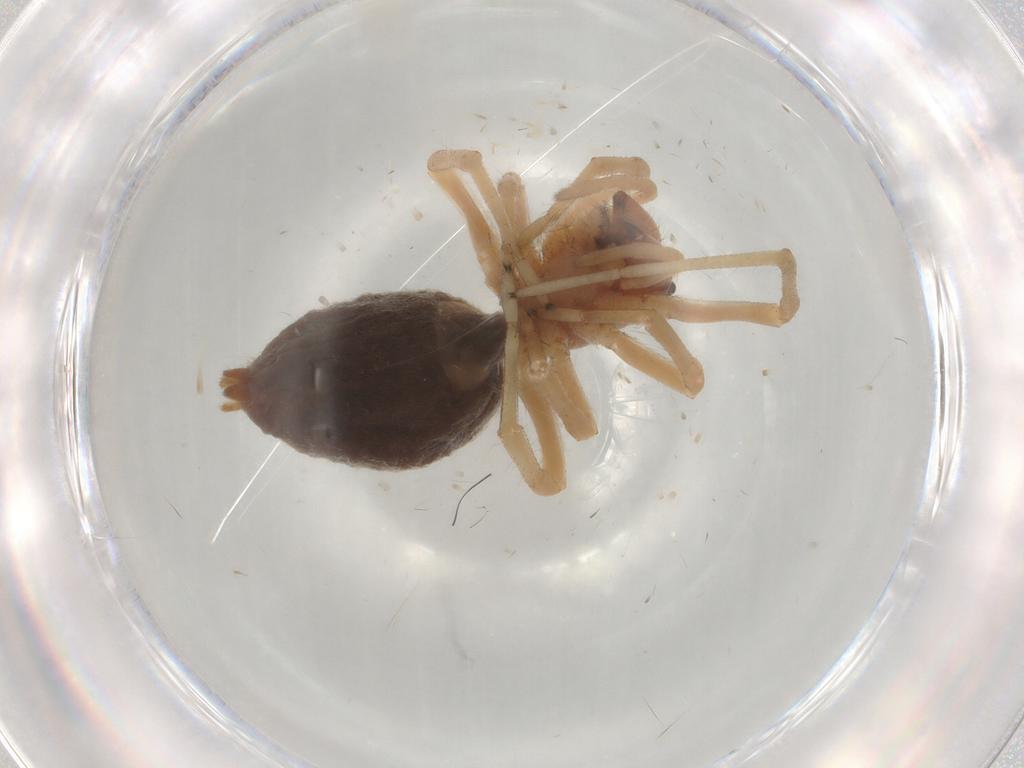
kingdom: Animalia
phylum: Arthropoda
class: Arachnida
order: Araneae
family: Cheiracanthiidae
